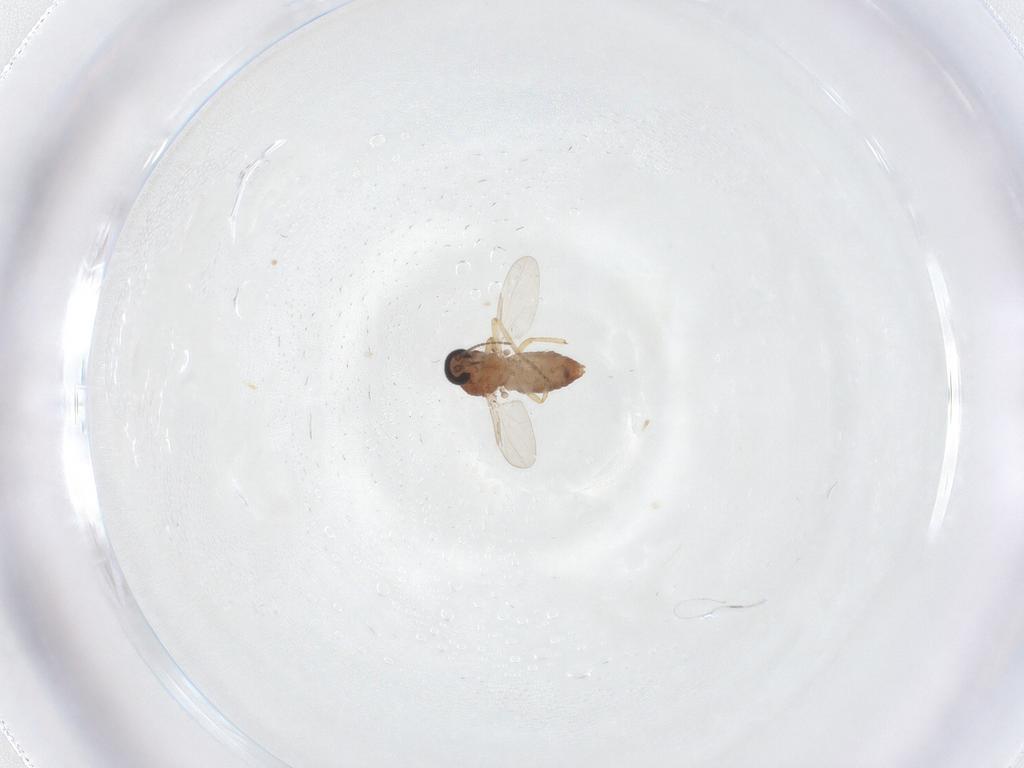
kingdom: Animalia
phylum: Arthropoda
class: Insecta
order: Diptera
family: Ceratopogonidae
